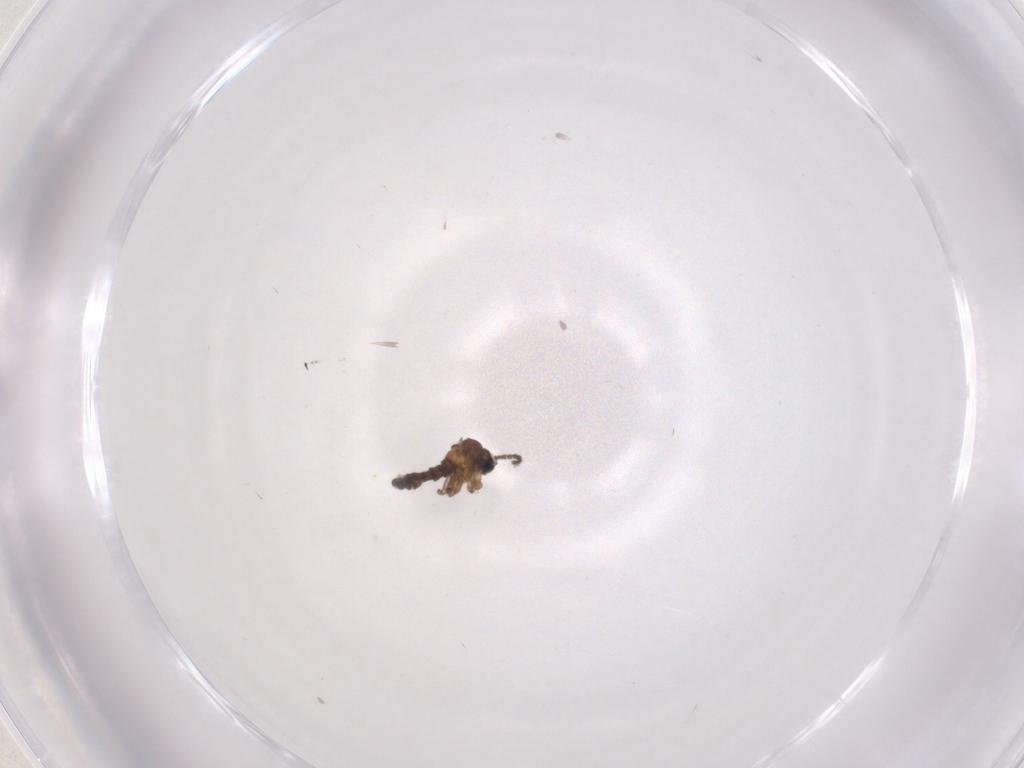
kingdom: Animalia
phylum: Arthropoda
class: Insecta
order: Diptera
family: Sciaridae
